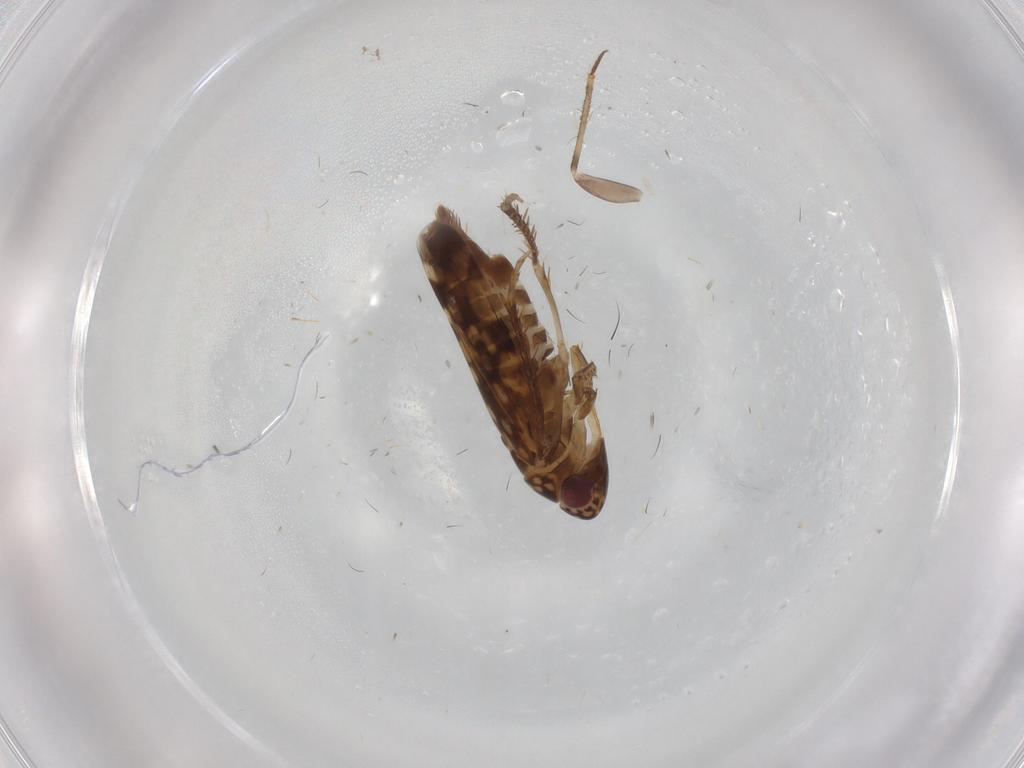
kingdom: Animalia
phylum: Arthropoda
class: Insecta
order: Hemiptera
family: Cicadellidae
